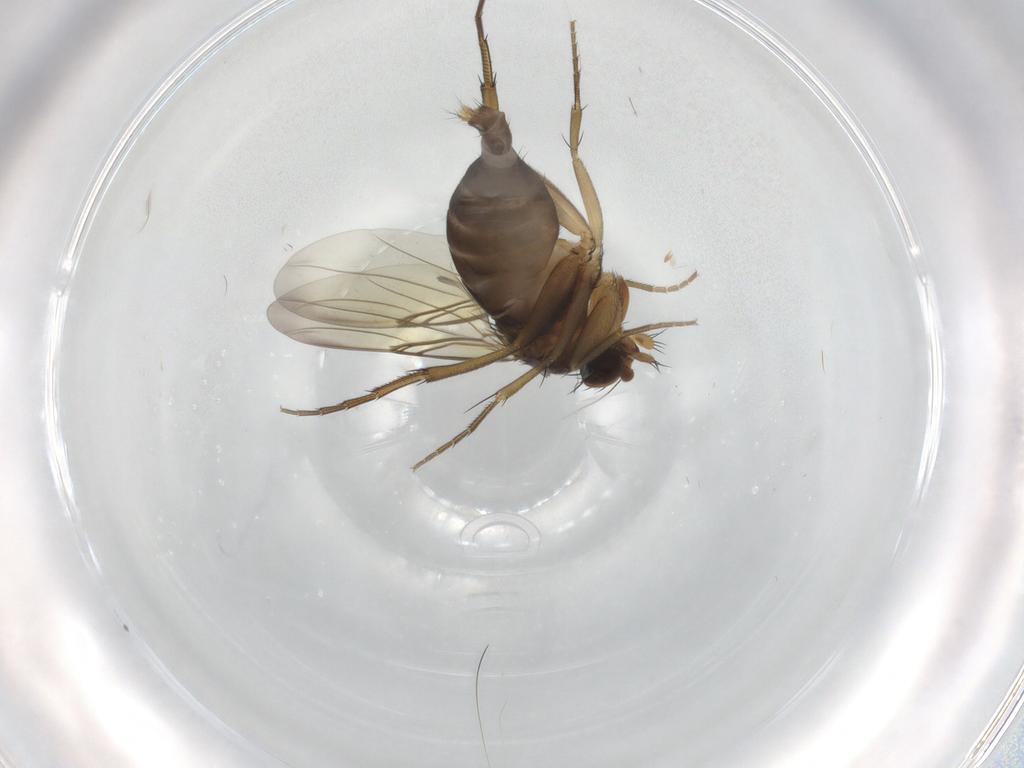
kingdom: Animalia
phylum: Arthropoda
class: Insecta
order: Diptera
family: Phoridae
